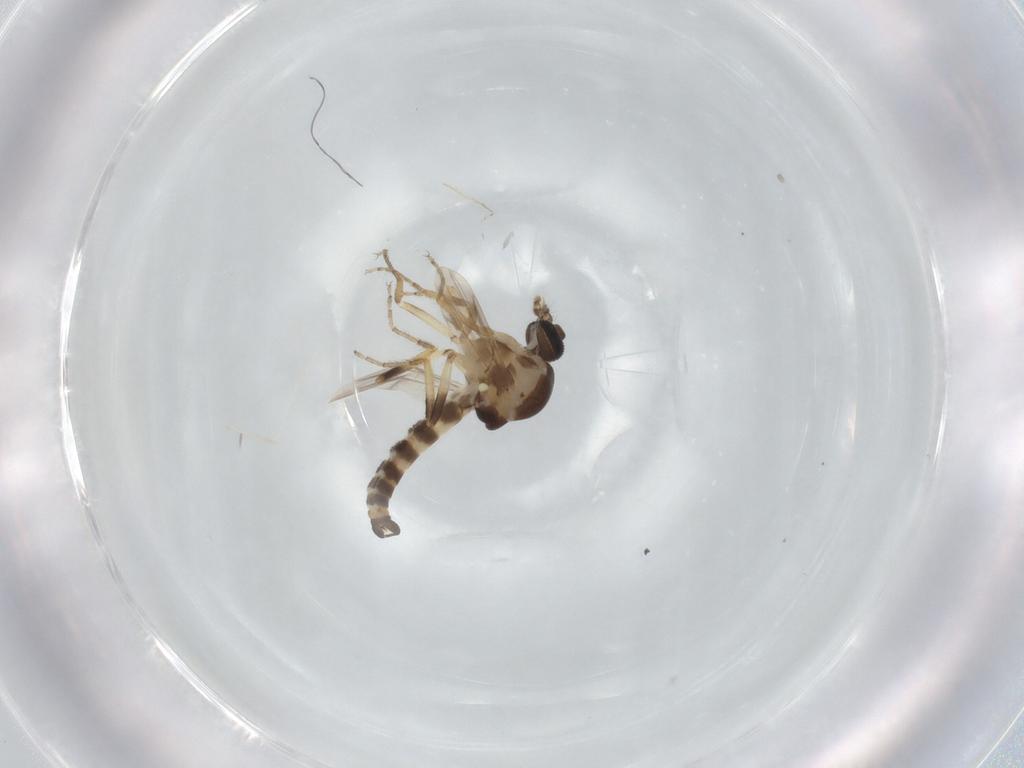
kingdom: Animalia
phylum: Arthropoda
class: Insecta
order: Diptera
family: Ceratopogonidae
